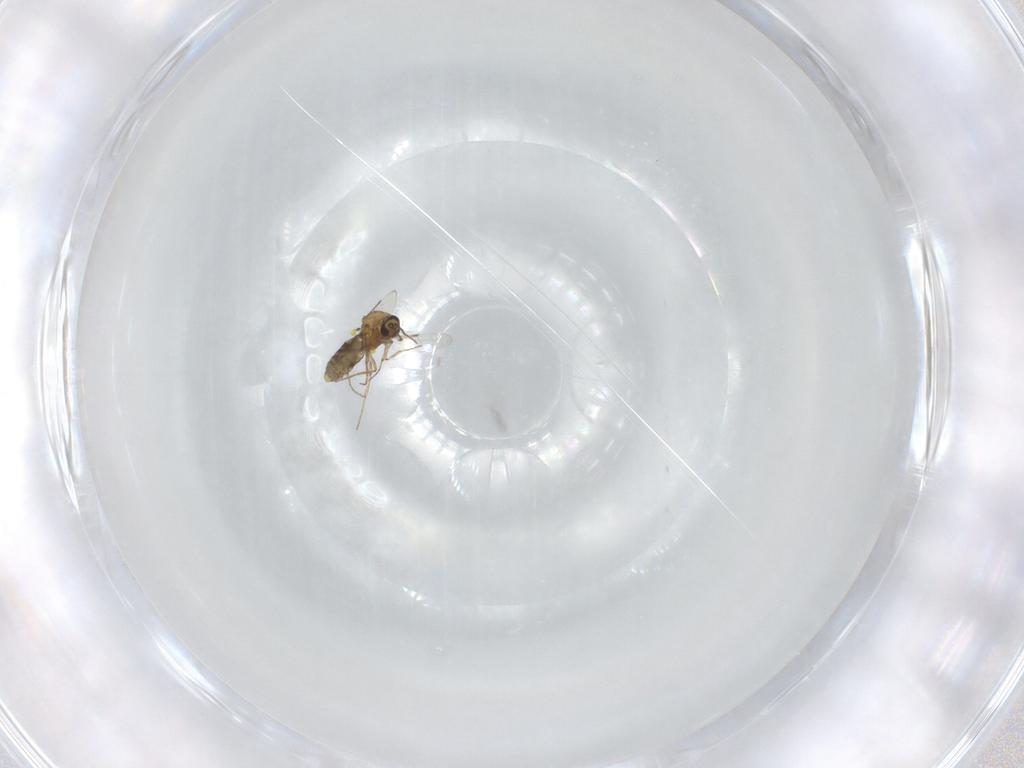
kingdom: Animalia
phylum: Arthropoda
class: Insecta
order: Diptera
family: Ceratopogonidae
